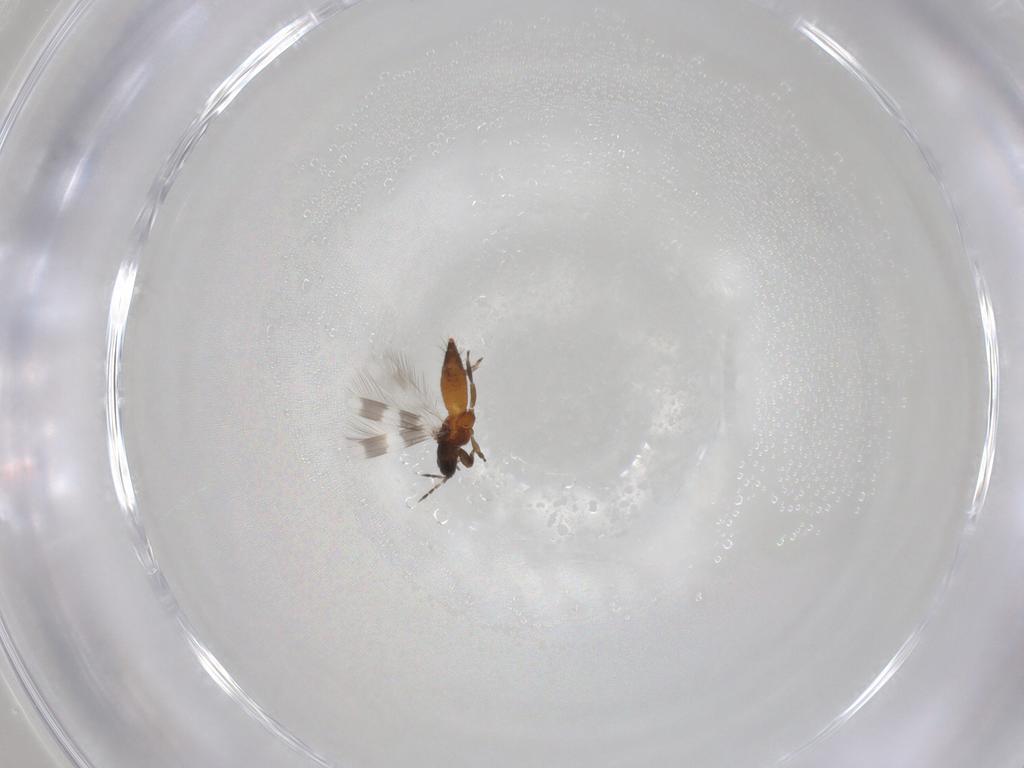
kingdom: Animalia
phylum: Arthropoda
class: Insecta
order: Thysanoptera
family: Aeolothripidae
